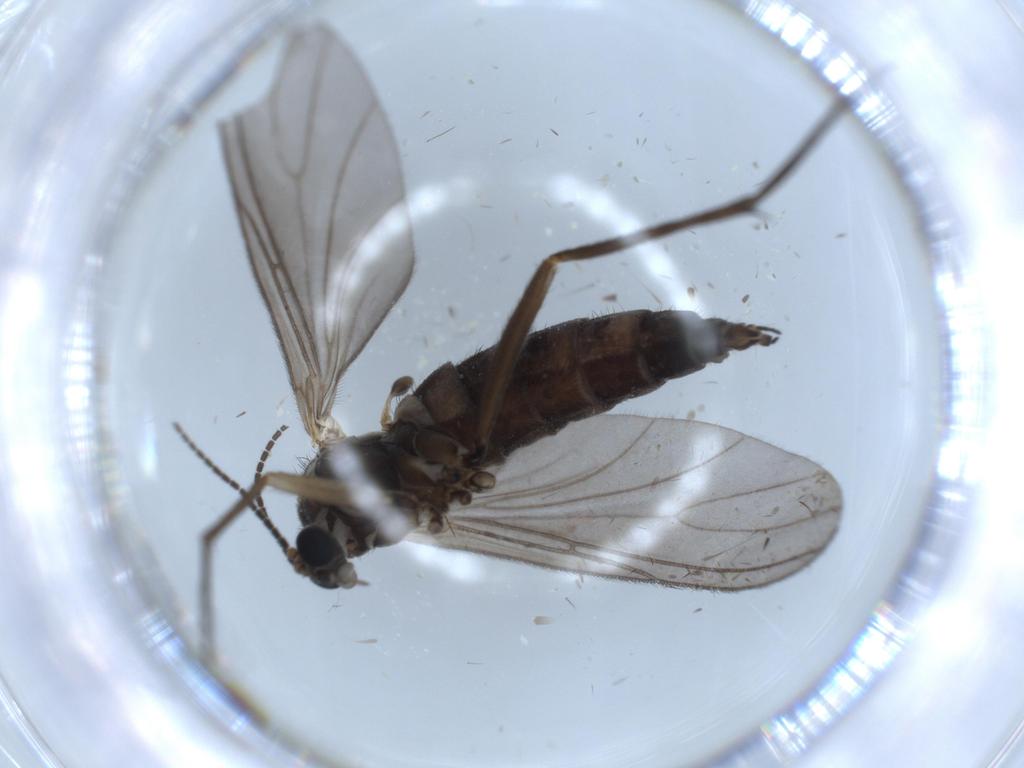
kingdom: Animalia
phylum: Arthropoda
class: Insecta
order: Diptera
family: Sciaridae
